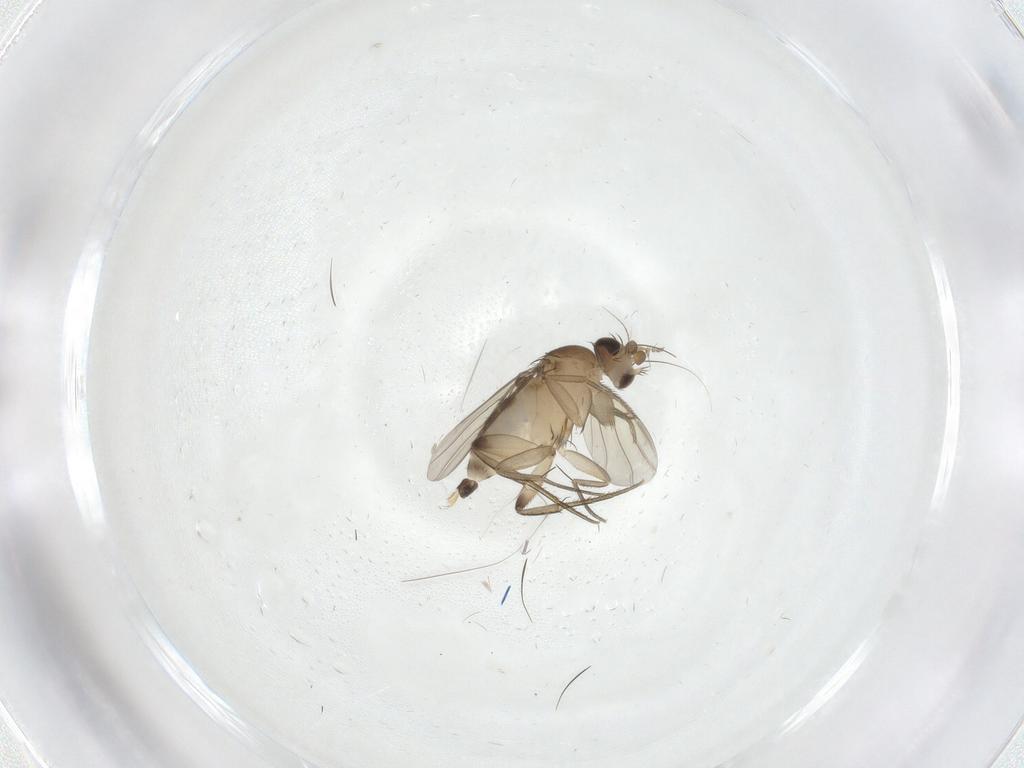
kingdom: Animalia
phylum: Arthropoda
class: Insecta
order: Diptera
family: Psychodidae
